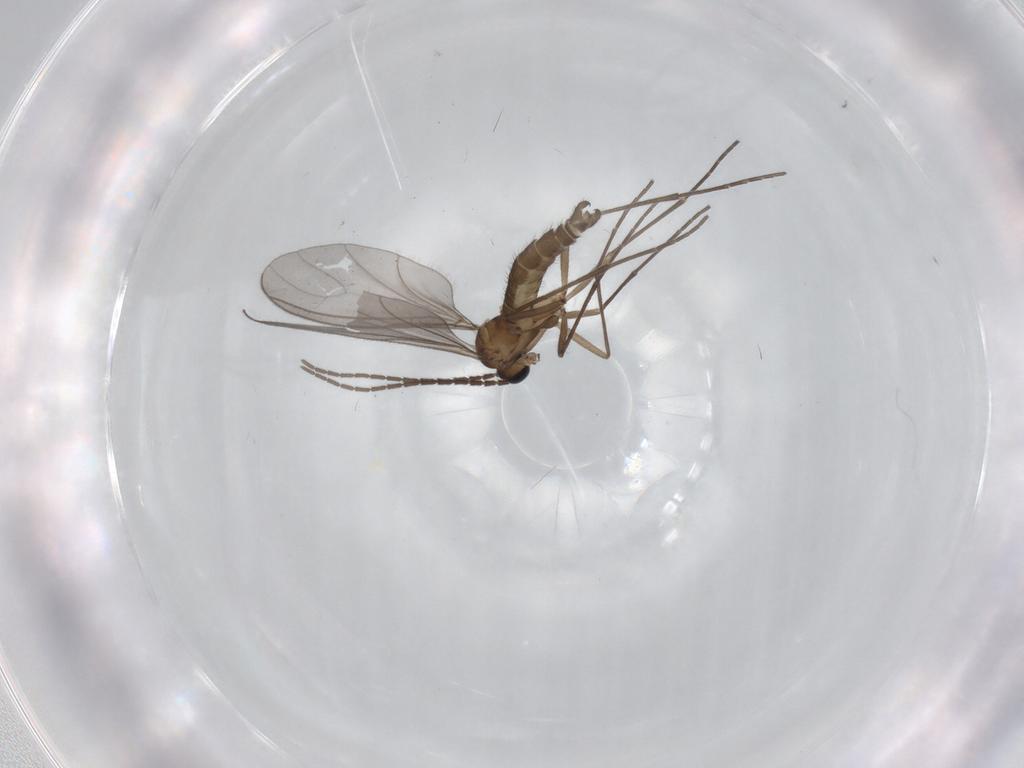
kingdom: Animalia
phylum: Arthropoda
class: Insecta
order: Diptera
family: Sciaridae
